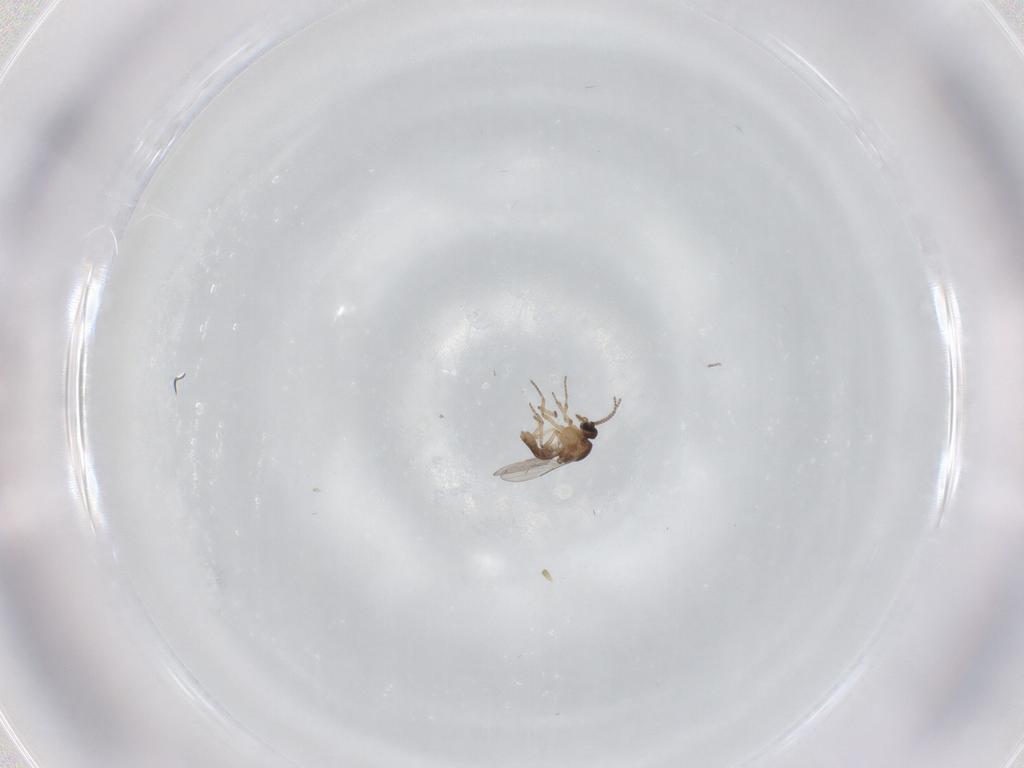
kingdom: Animalia
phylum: Arthropoda
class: Insecta
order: Diptera
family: Ceratopogonidae
